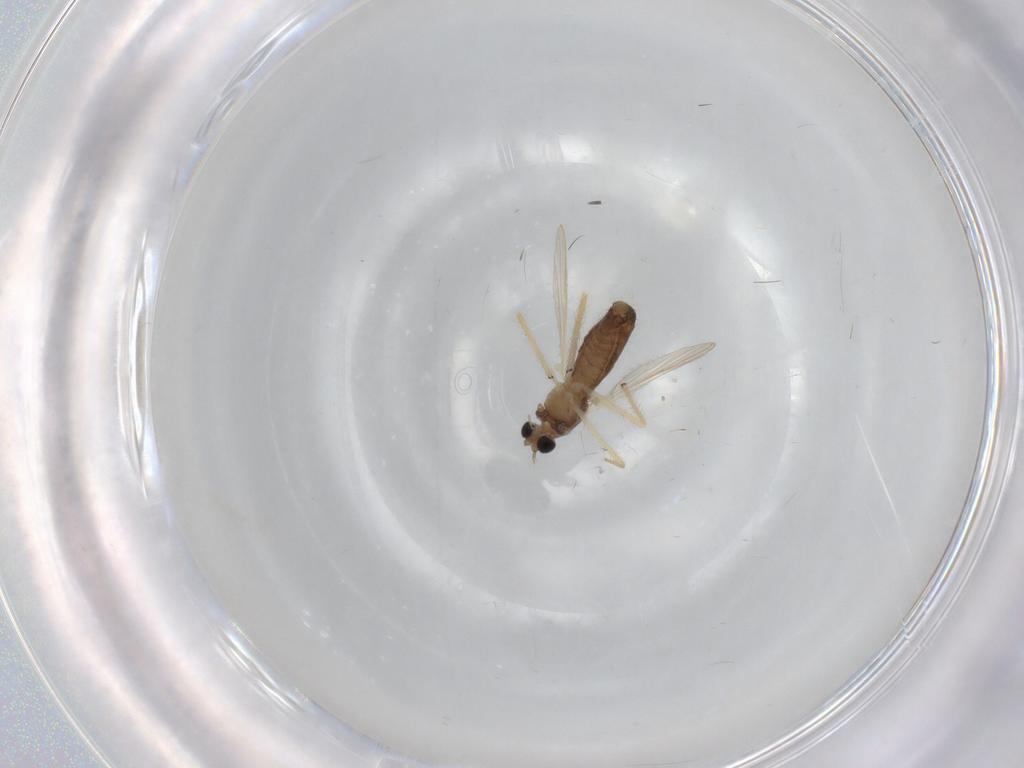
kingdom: Animalia
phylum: Arthropoda
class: Insecta
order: Diptera
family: Chironomidae
